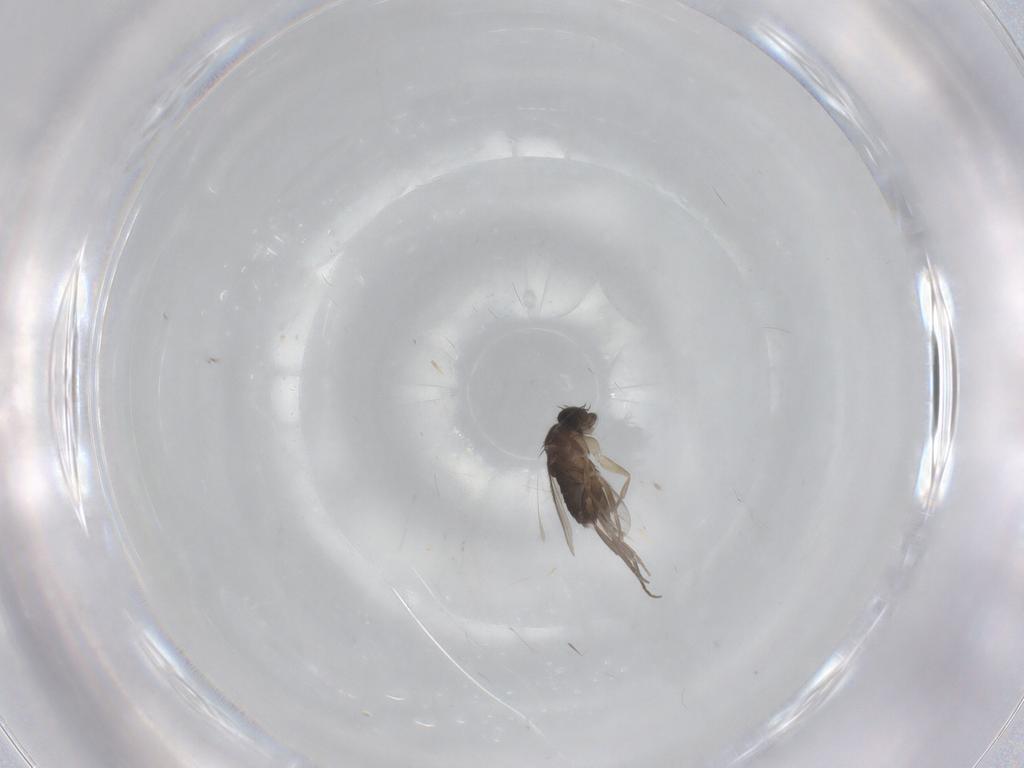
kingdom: Animalia
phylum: Arthropoda
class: Insecta
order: Diptera
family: Phoridae
